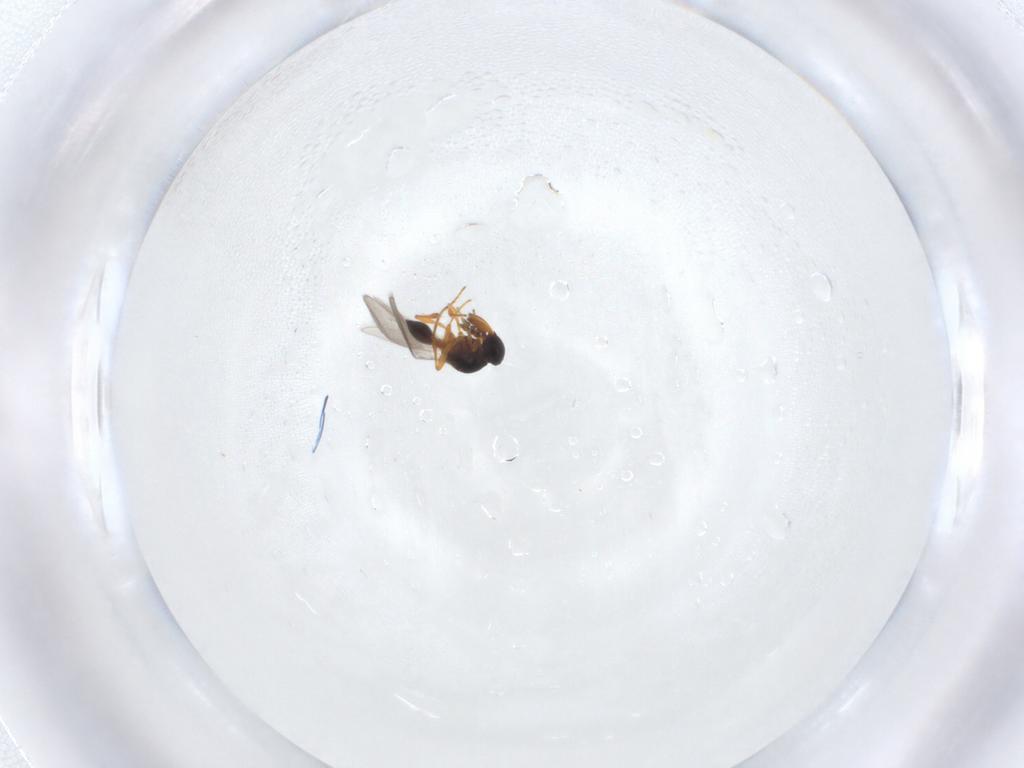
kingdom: Animalia
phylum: Arthropoda
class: Insecta
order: Hymenoptera
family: Platygastridae
